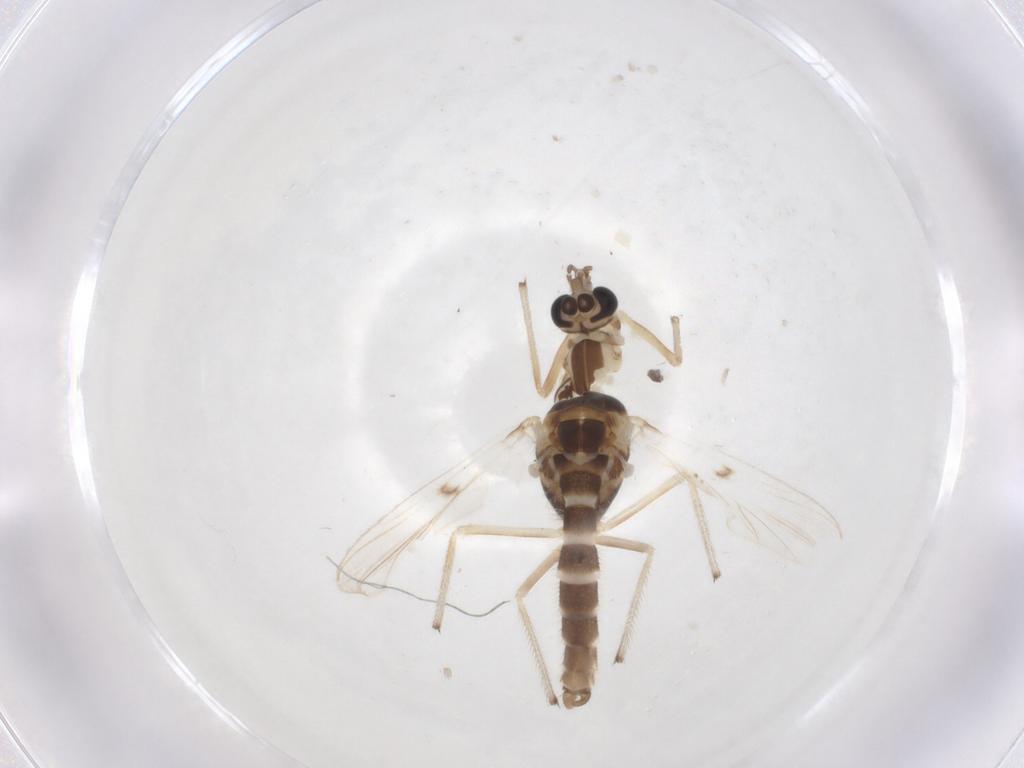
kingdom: Animalia
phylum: Arthropoda
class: Insecta
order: Diptera
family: Chironomidae
